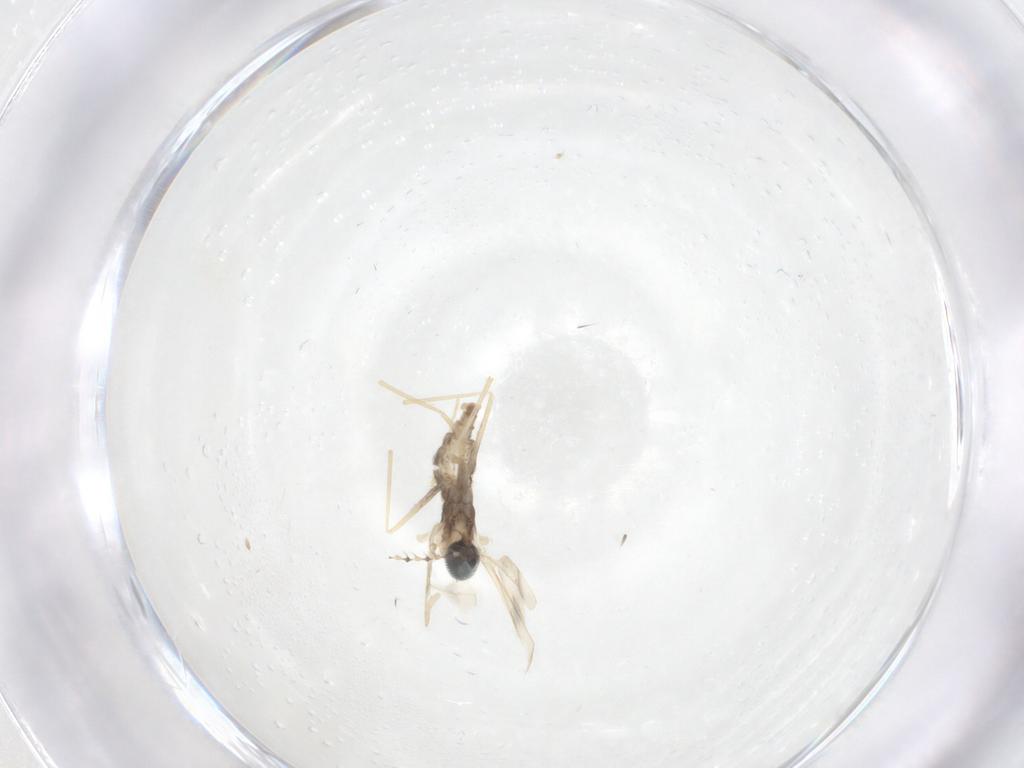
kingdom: Animalia
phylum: Arthropoda
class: Insecta
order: Diptera
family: Cecidomyiidae
